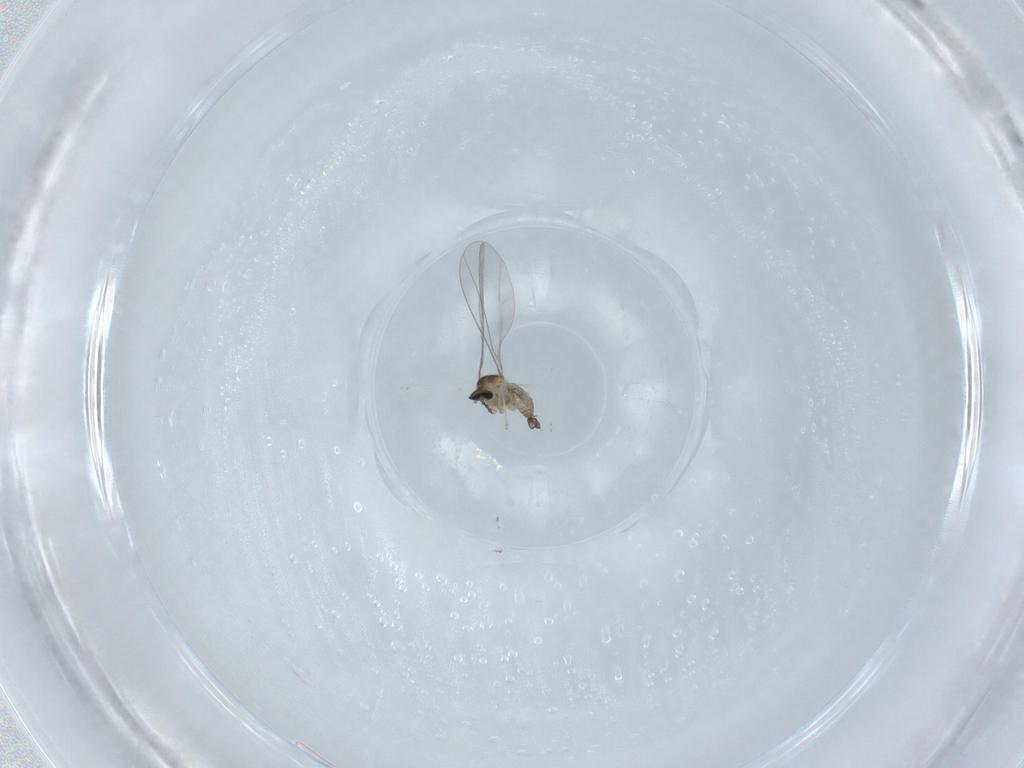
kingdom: Animalia
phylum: Arthropoda
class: Insecta
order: Diptera
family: Cecidomyiidae
